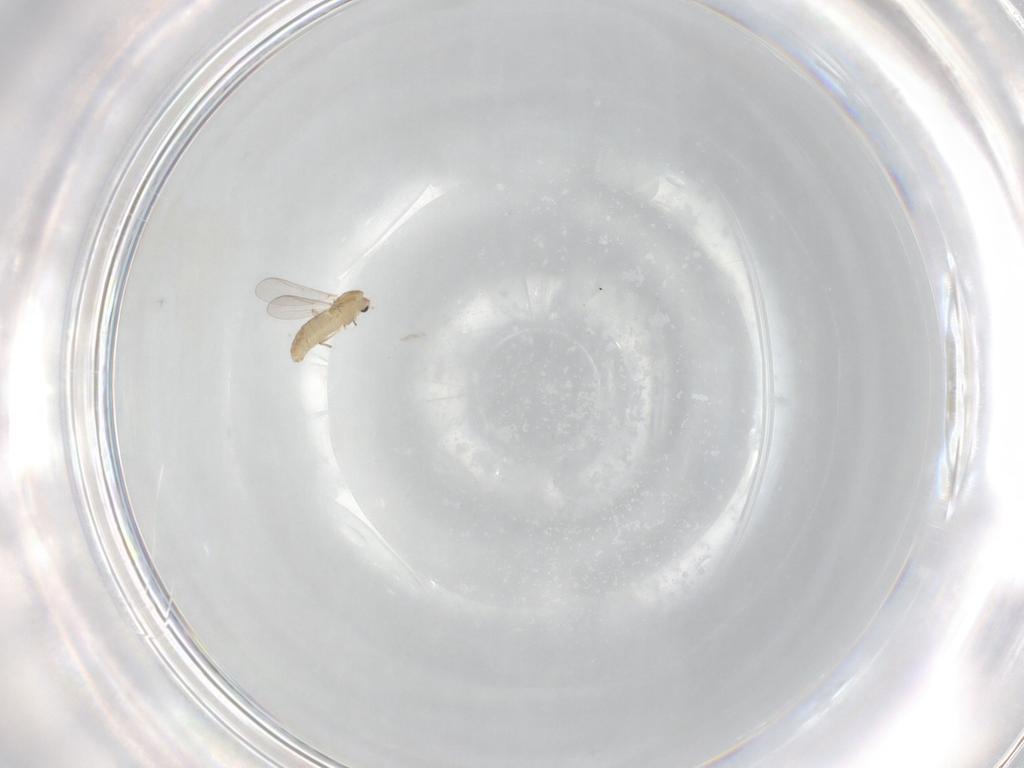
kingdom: Animalia
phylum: Arthropoda
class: Insecta
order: Diptera
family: Chironomidae
